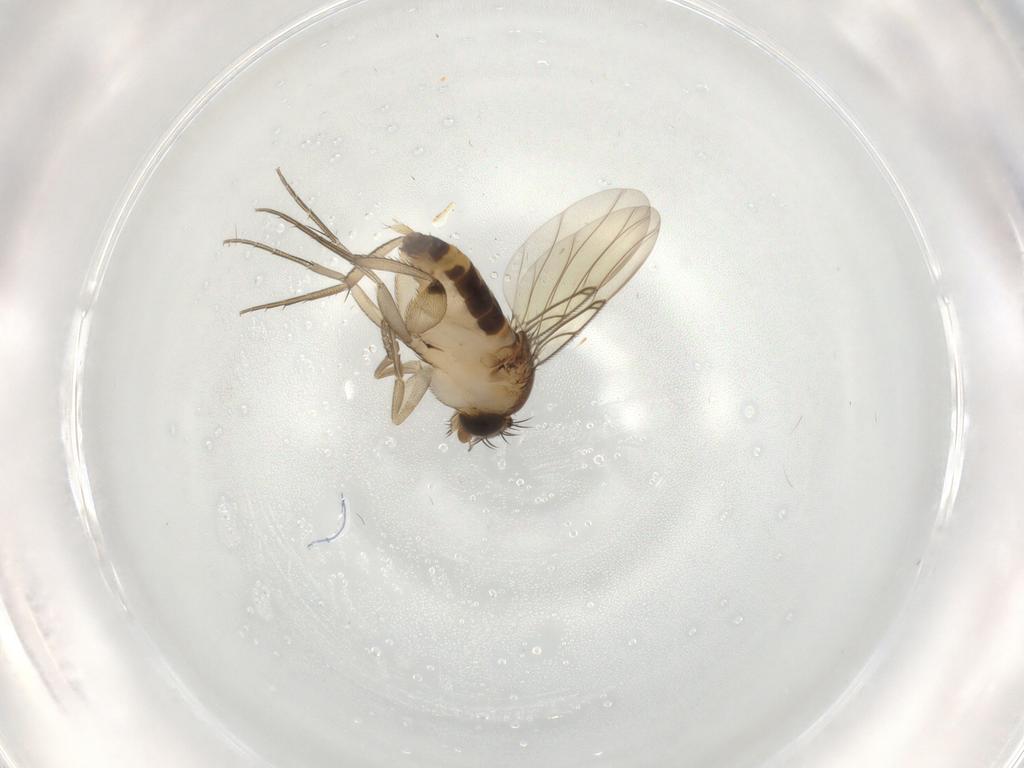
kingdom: Animalia
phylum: Arthropoda
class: Insecta
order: Diptera
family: Phoridae
